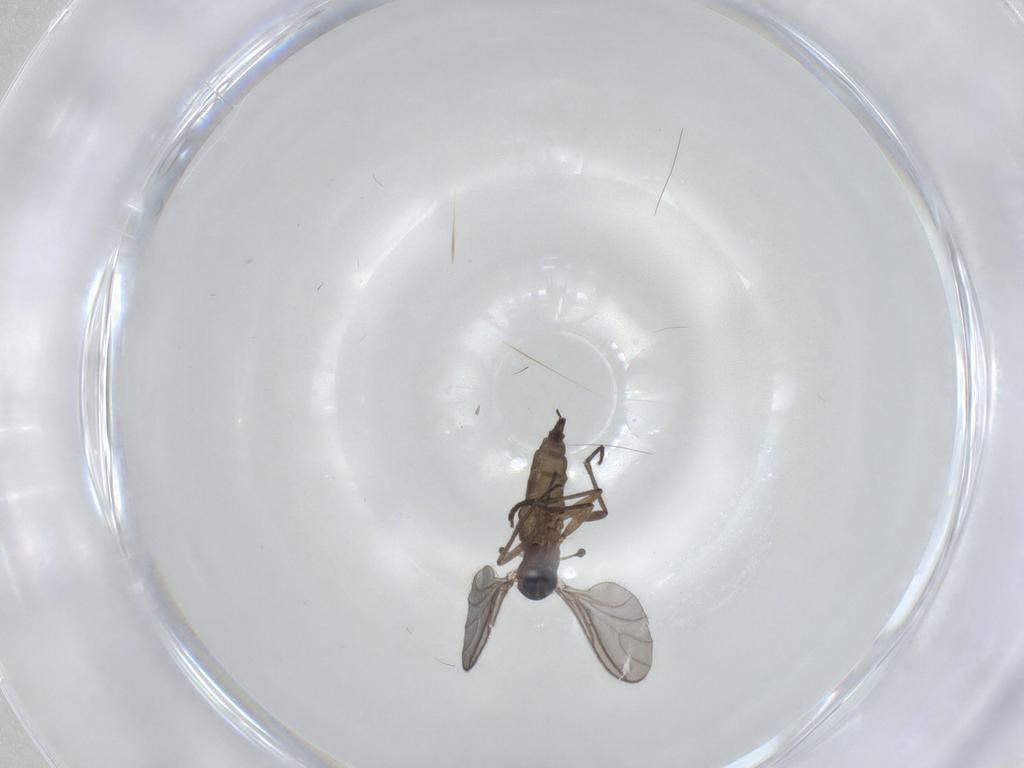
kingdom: Animalia
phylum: Arthropoda
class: Insecta
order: Diptera
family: Sciaridae
